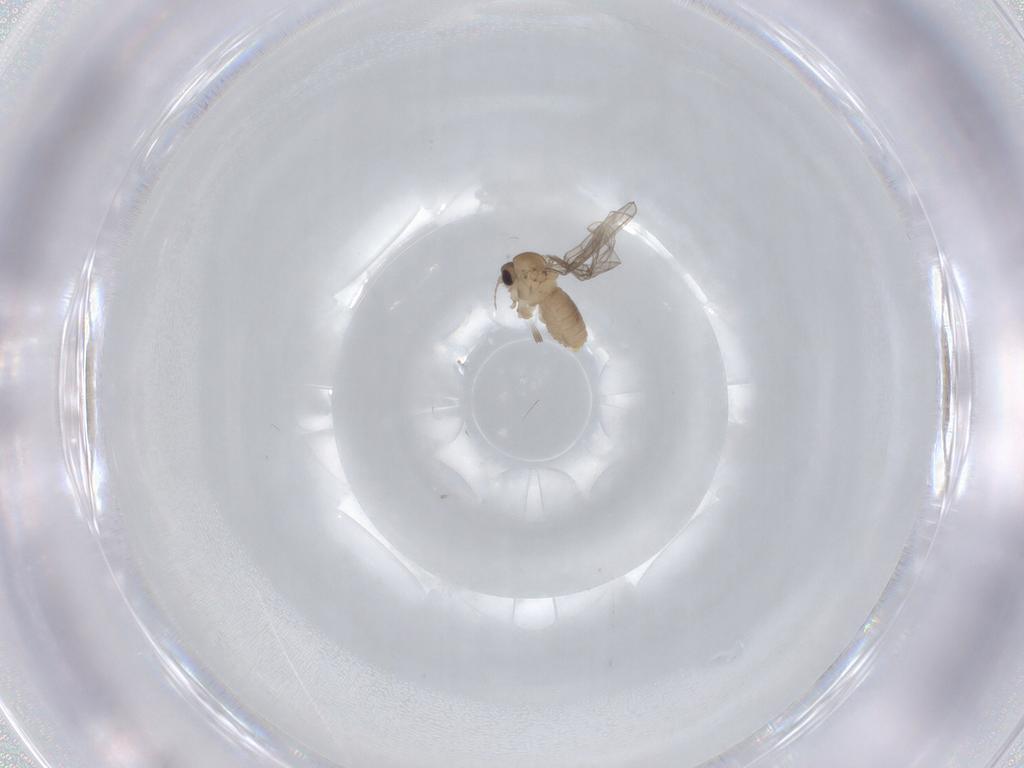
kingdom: Animalia
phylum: Arthropoda
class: Insecta
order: Diptera
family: Psychodidae
